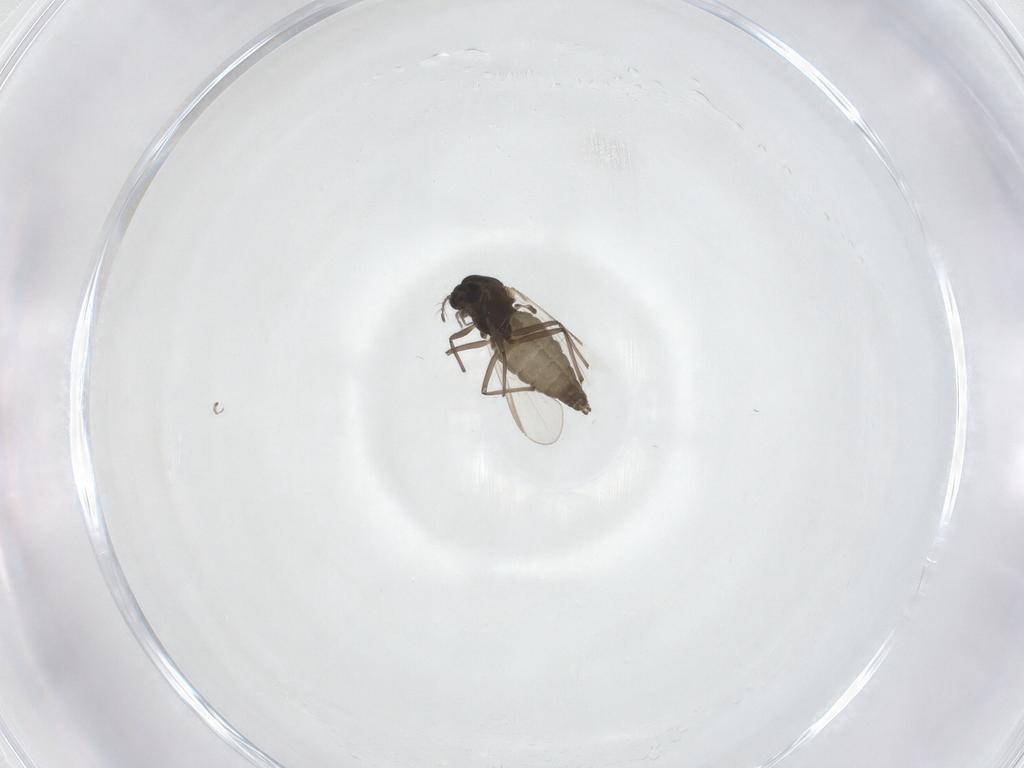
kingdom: Animalia
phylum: Arthropoda
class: Insecta
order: Diptera
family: Chironomidae
